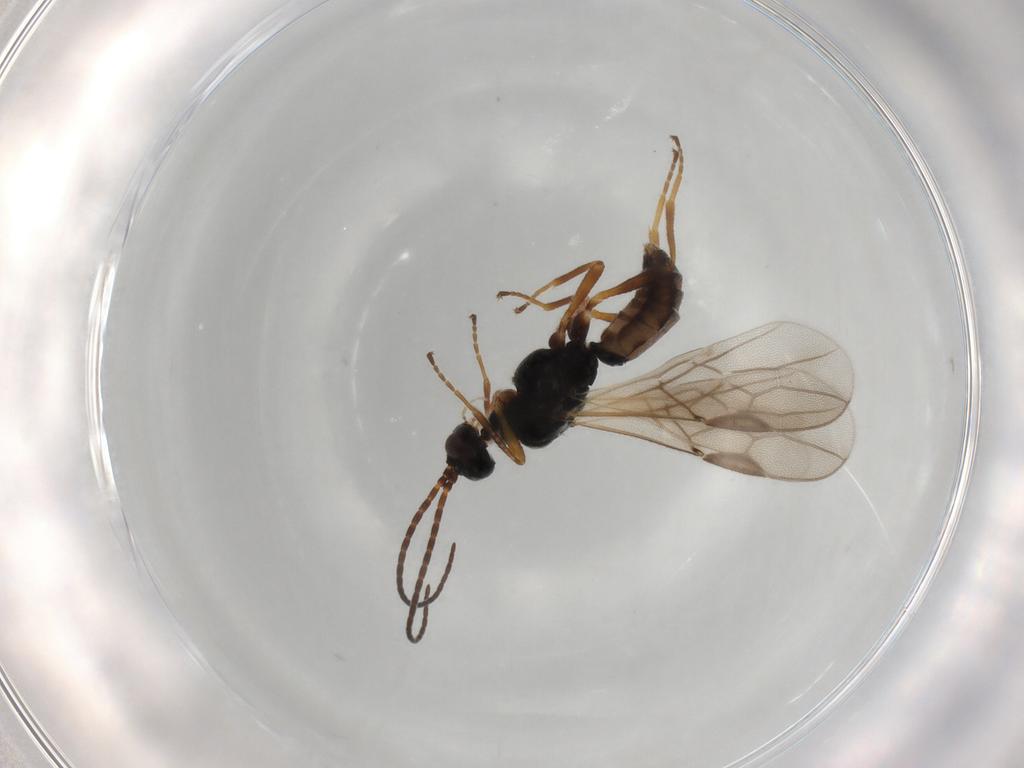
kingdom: Animalia
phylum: Arthropoda
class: Insecta
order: Hymenoptera
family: Braconidae
